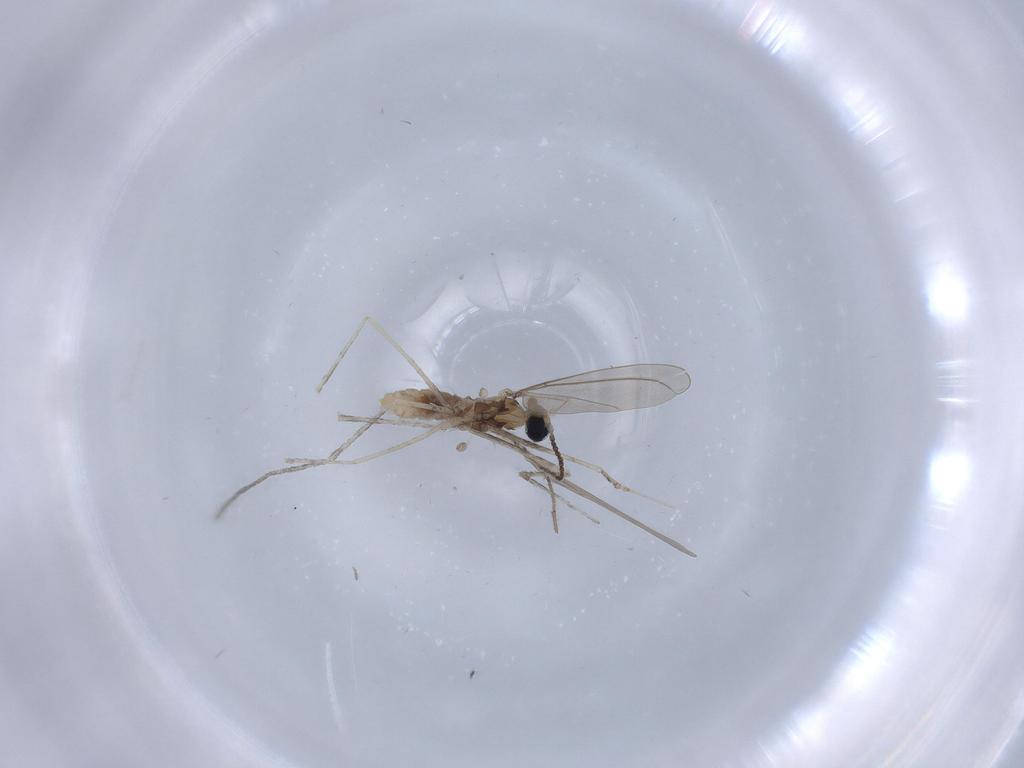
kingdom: Animalia
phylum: Arthropoda
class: Insecta
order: Diptera
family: Cecidomyiidae
